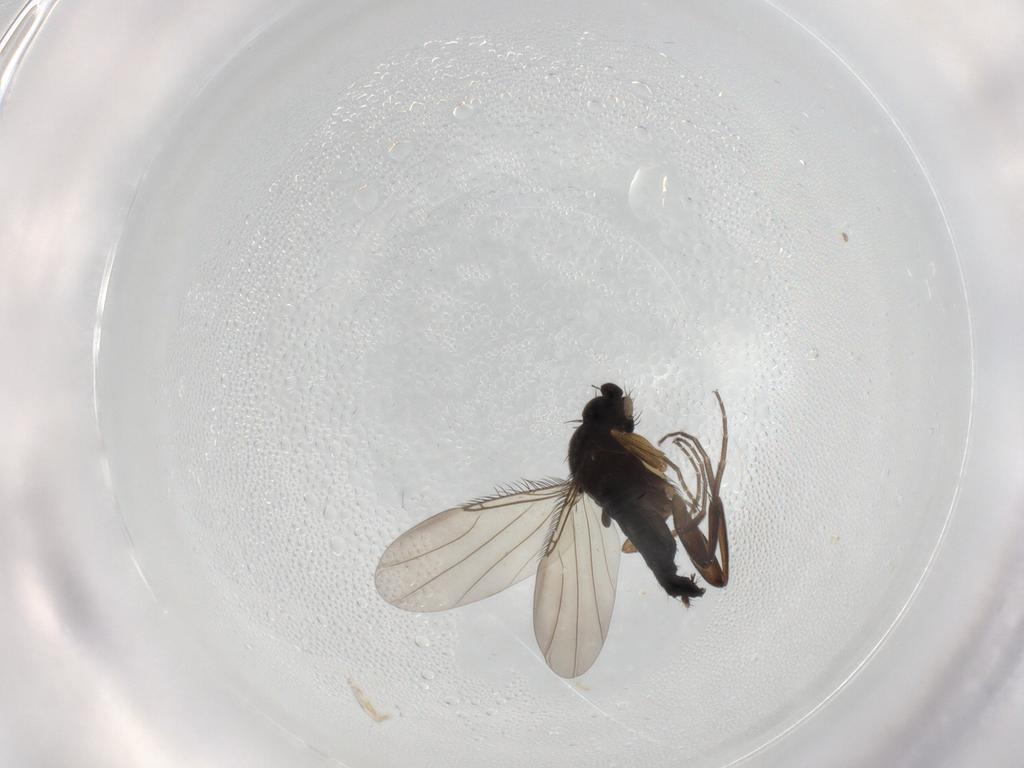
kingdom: Animalia
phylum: Arthropoda
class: Insecta
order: Diptera
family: Phoridae
